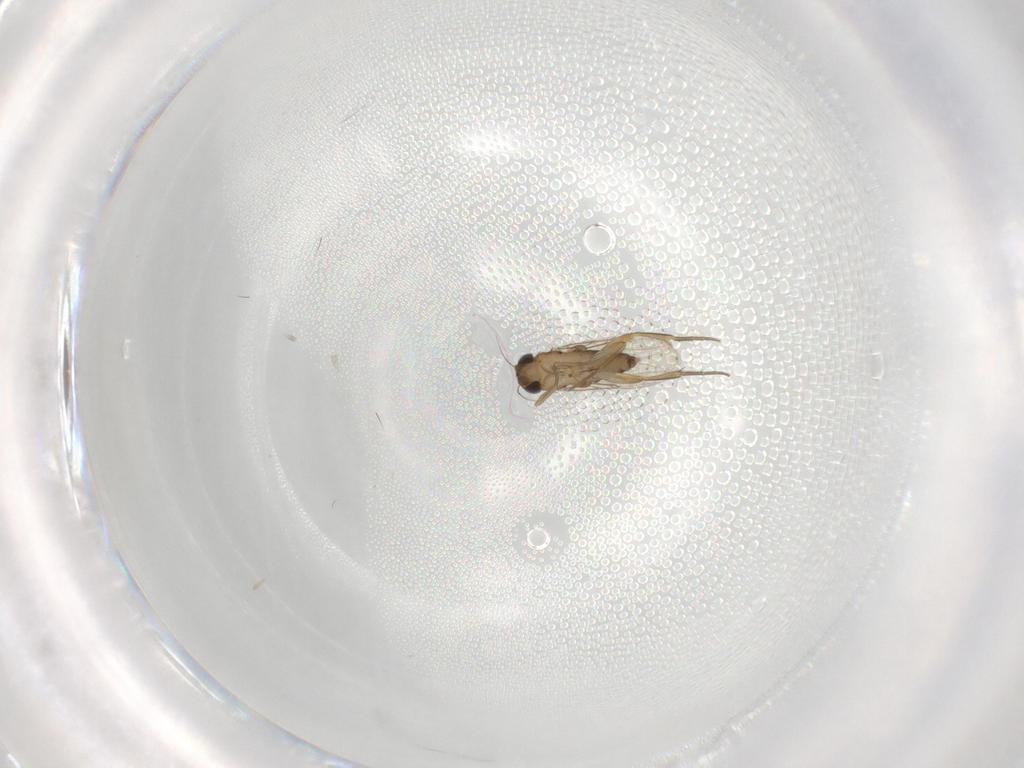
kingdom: Animalia
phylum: Arthropoda
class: Insecta
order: Diptera
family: Phoridae
